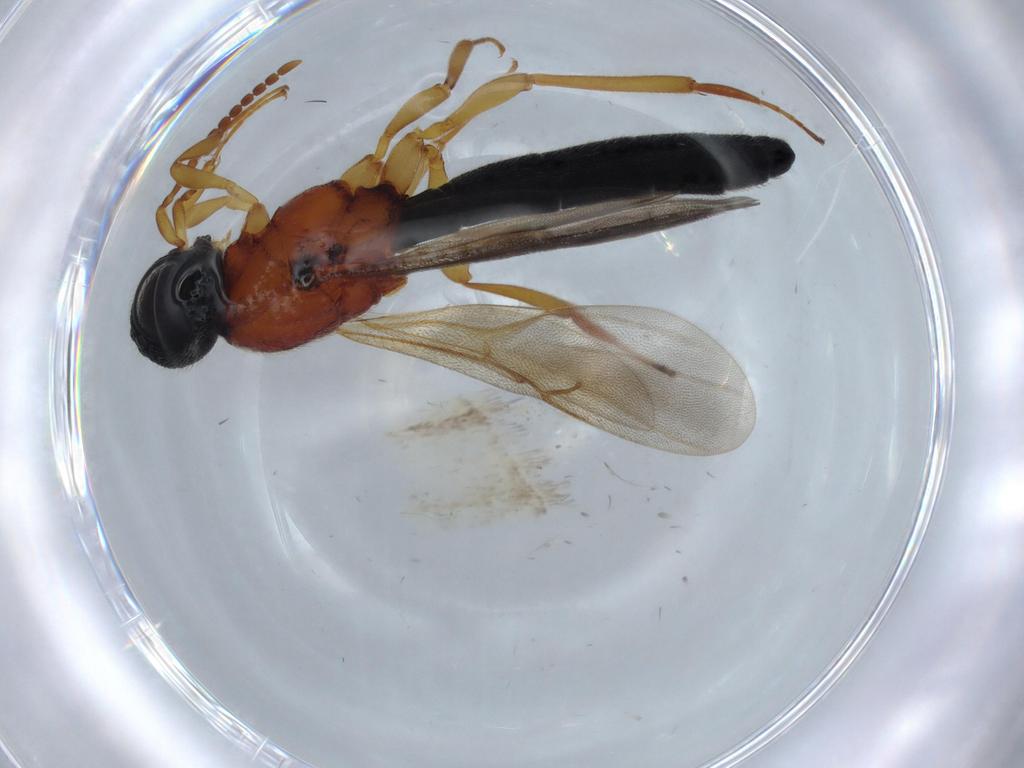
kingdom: Animalia
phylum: Arthropoda
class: Insecta
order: Hymenoptera
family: Scelionidae
